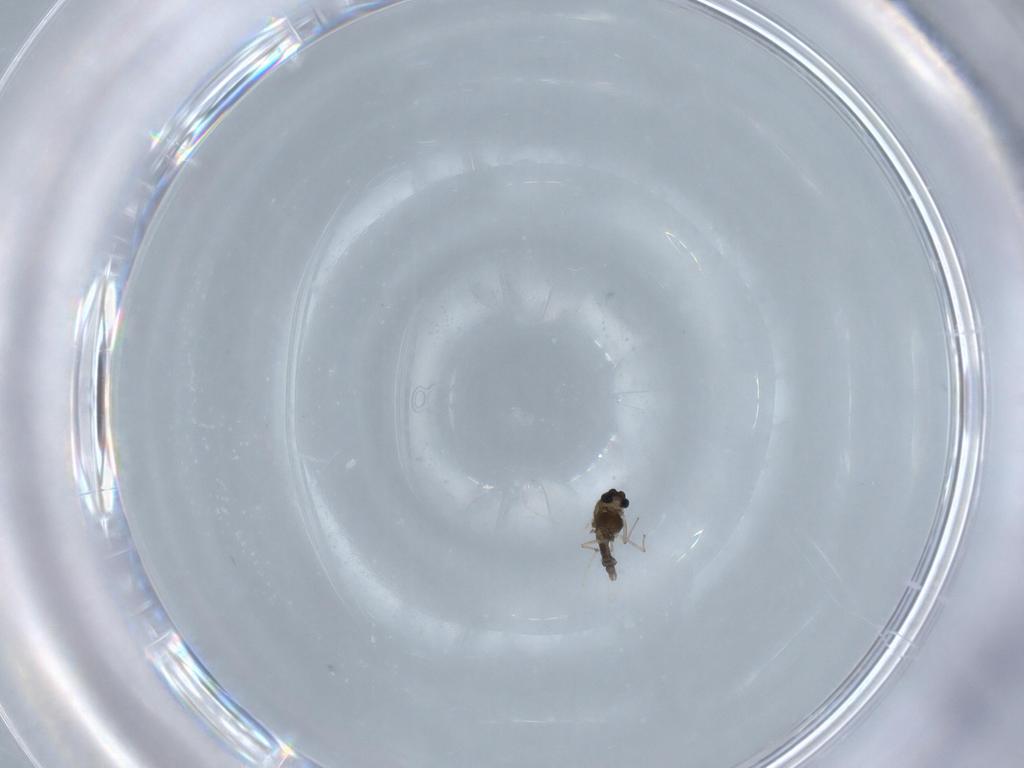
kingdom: Animalia
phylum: Arthropoda
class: Insecta
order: Diptera
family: Chironomidae
